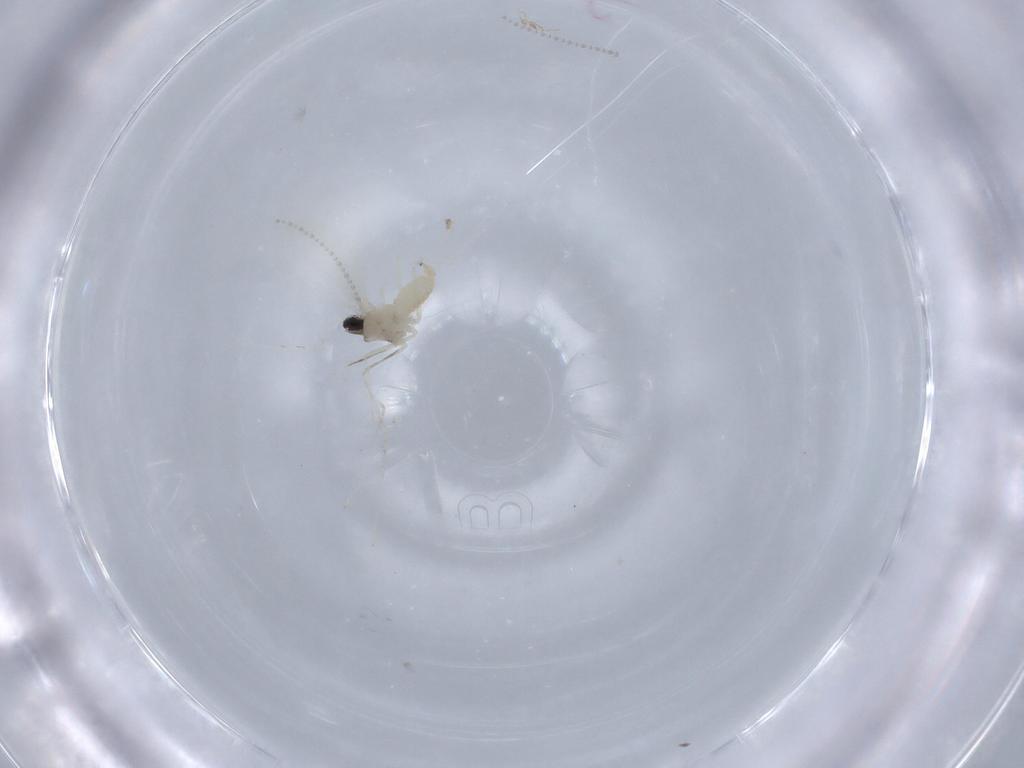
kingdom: Animalia
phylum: Arthropoda
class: Insecta
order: Diptera
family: Cecidomyiidae
